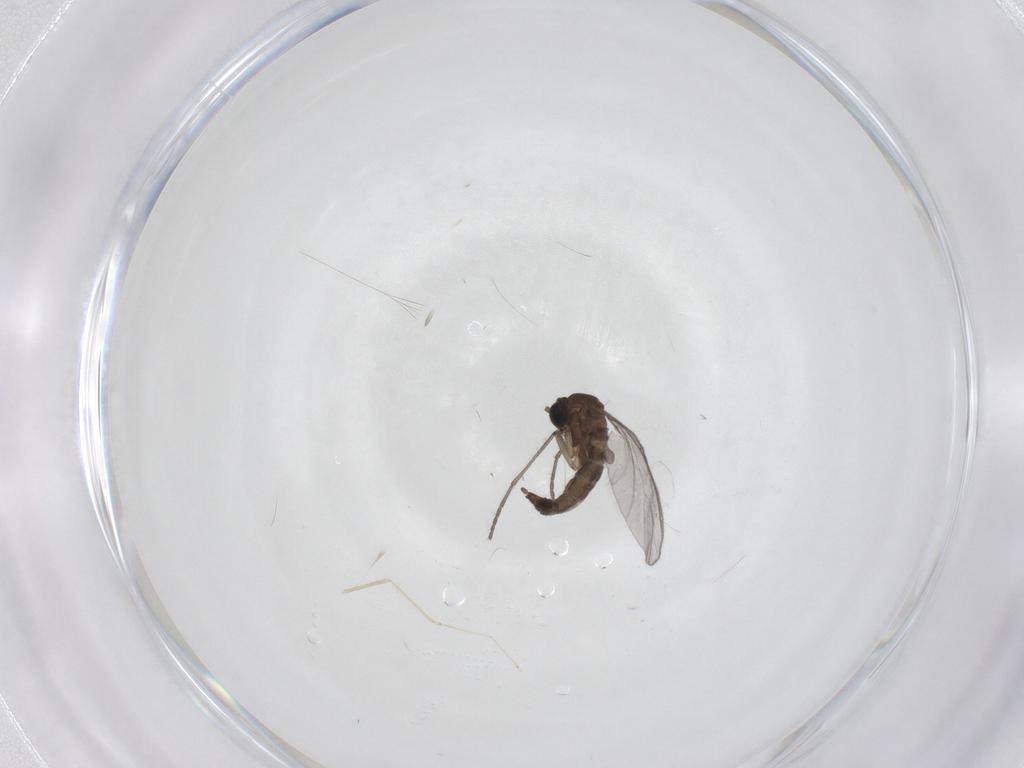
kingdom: Animalia
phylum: Arthropoda
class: Insecta
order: Diptera
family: Cecidomyiidae
